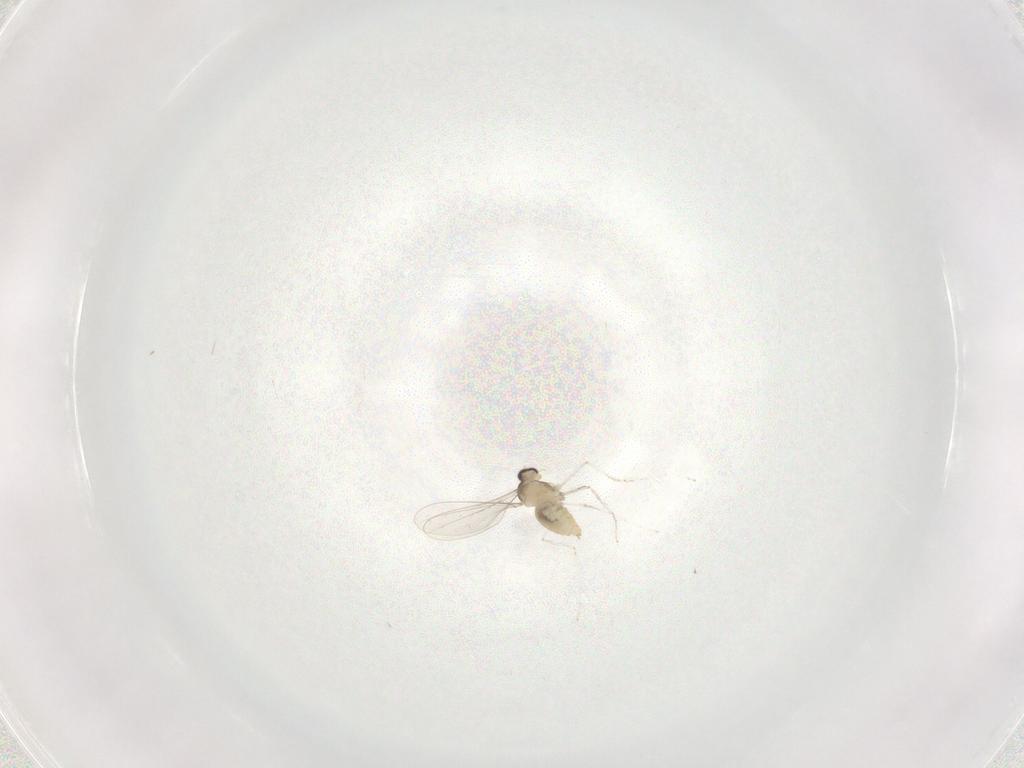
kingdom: Animalia
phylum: Arthropoda
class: Insecta
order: Diptera
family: Cecidomyiidae
